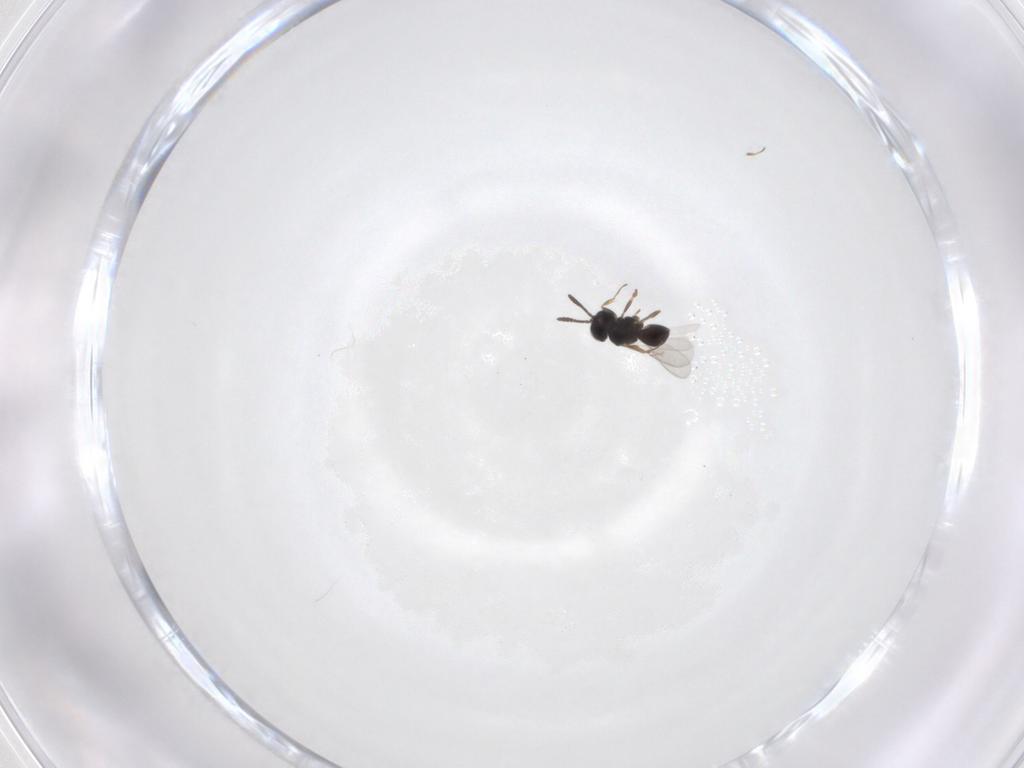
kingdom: Animalia
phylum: Arthropoda
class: Insecta
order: Hymenoptera
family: Scelionidae
